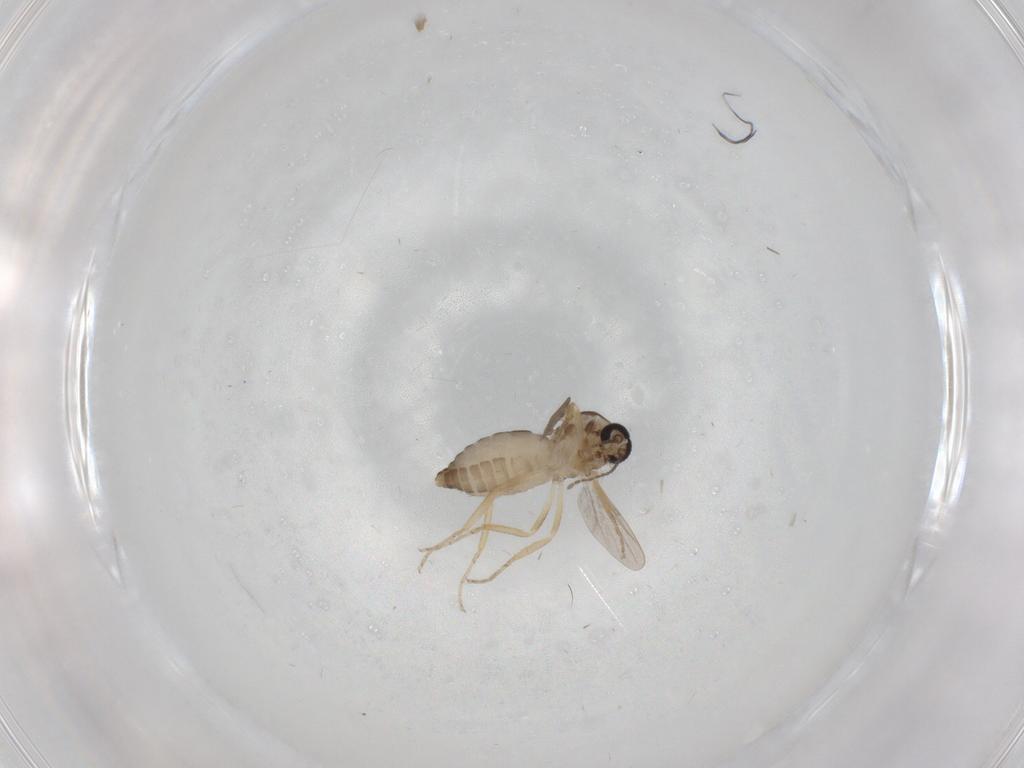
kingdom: Animalia
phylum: Arthropoda
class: Insecta
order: Diptera
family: Ceratopogonidae
